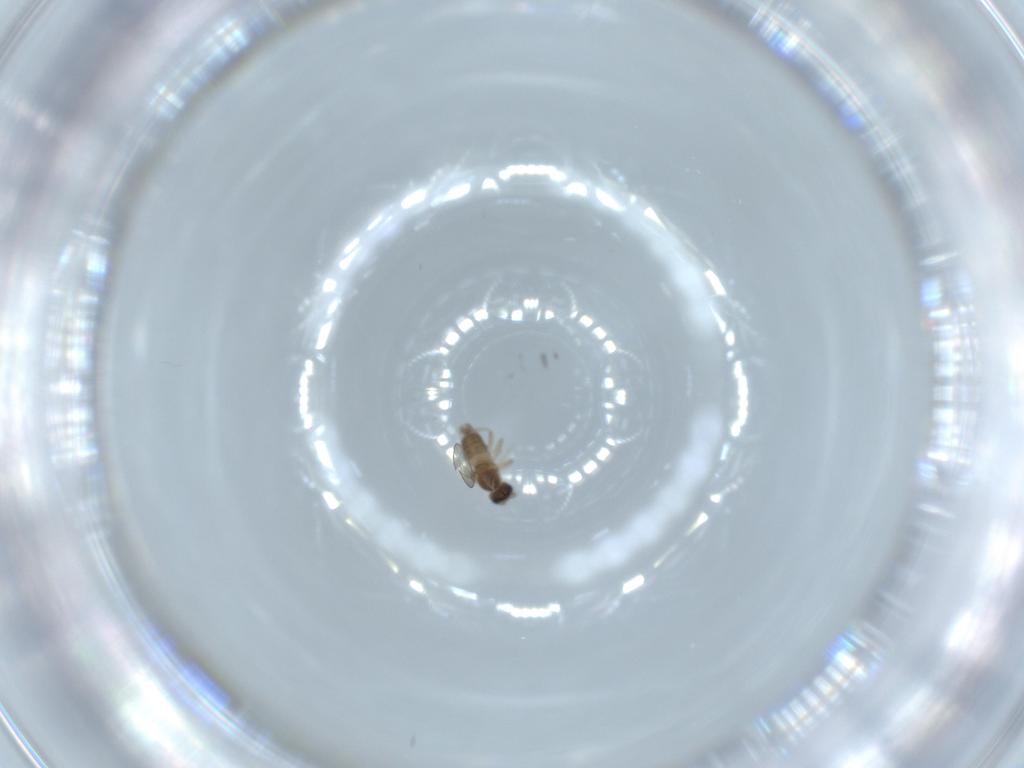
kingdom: Animalia
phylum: Arthropoda
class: Insecta
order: Diptera
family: Cecidomyiidae
